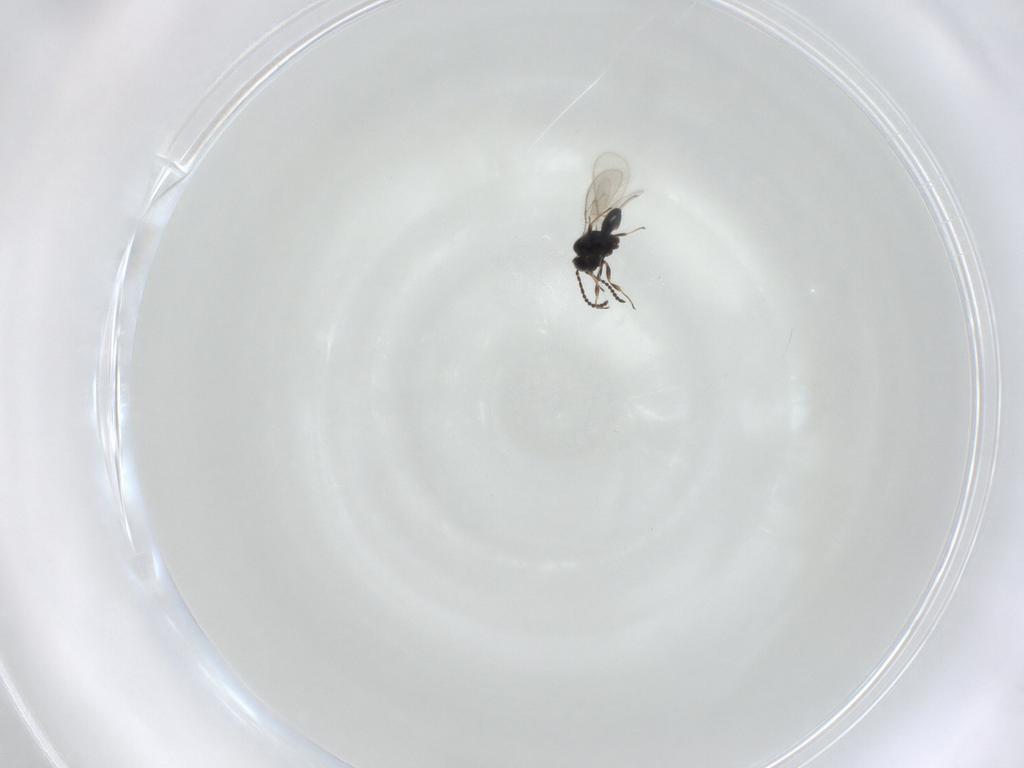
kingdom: Animalia
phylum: Arthropoda
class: Insecta
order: Hymenoptera
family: Scelionidae
